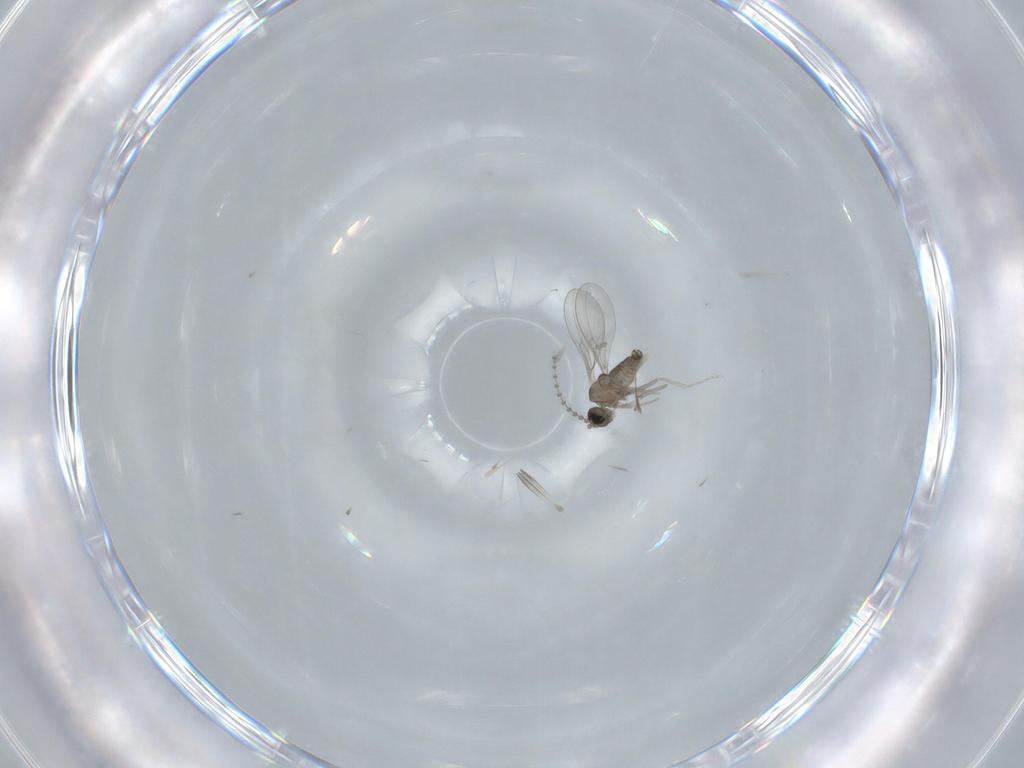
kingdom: Animalia
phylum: Arthropoda
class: Insecta
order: Diptera
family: Cecidomyiidae
